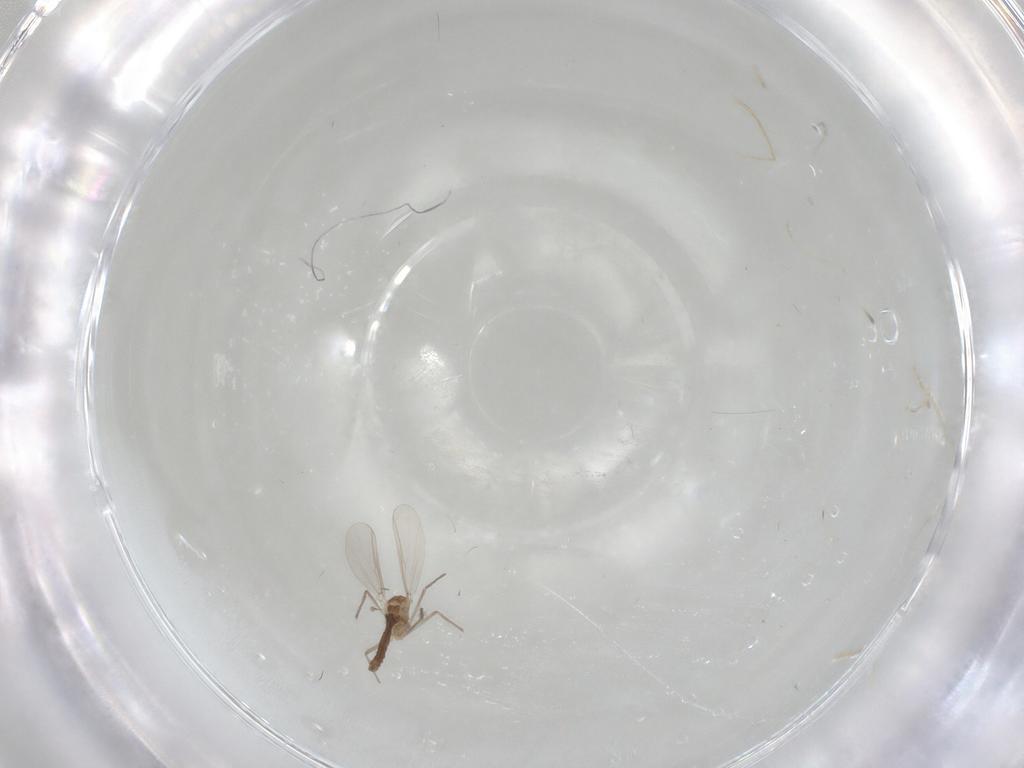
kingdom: Animalia
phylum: Arthropoda
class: Insecta
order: Diptera
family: Chironomidae
